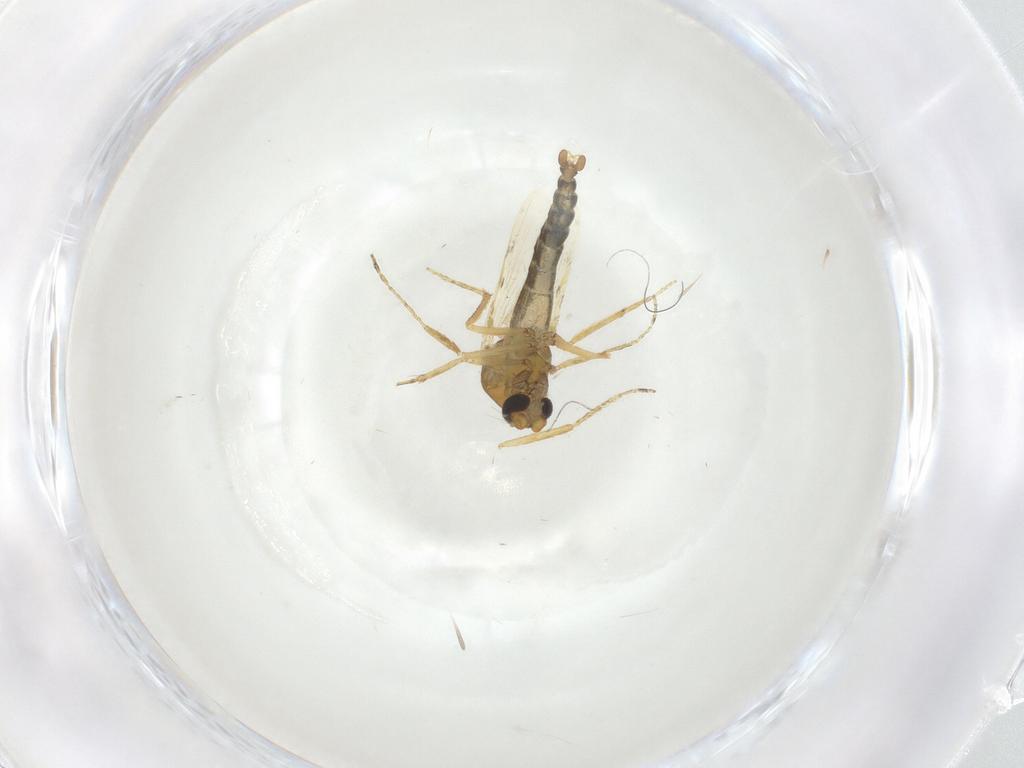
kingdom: Animalia
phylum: Arthropoda
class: Insecta
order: Diptera
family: Ceratopogonidae
